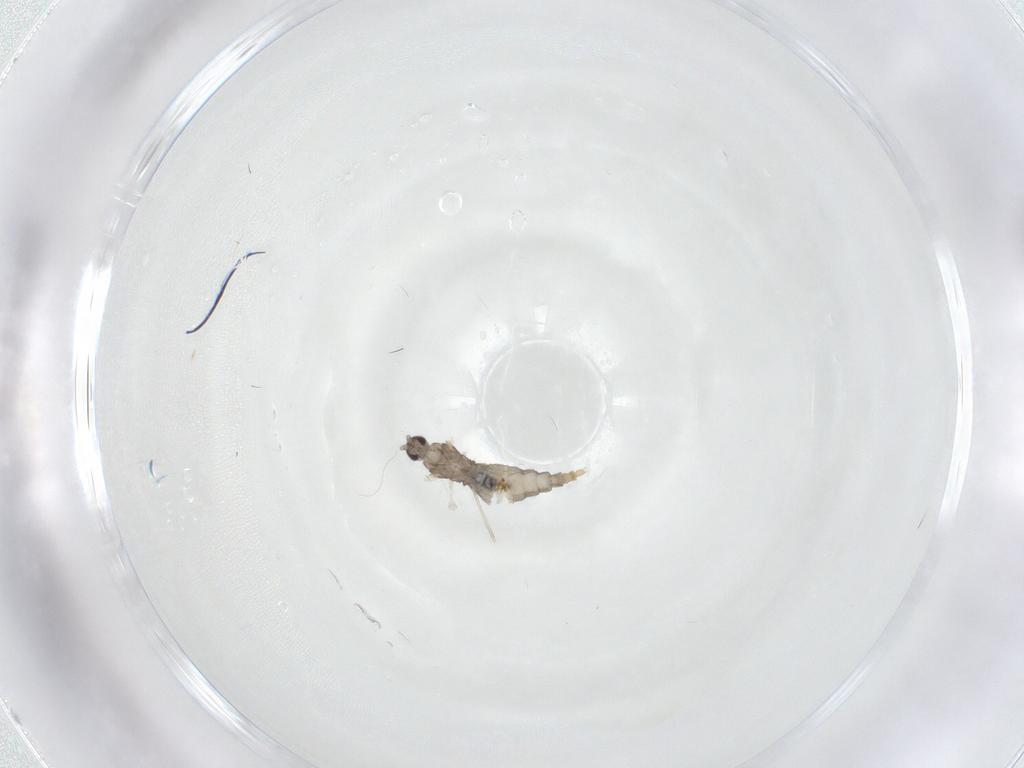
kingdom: Animalia
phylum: Arthropoda
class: Insecta
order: Diptera
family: Cecidomyiidae
